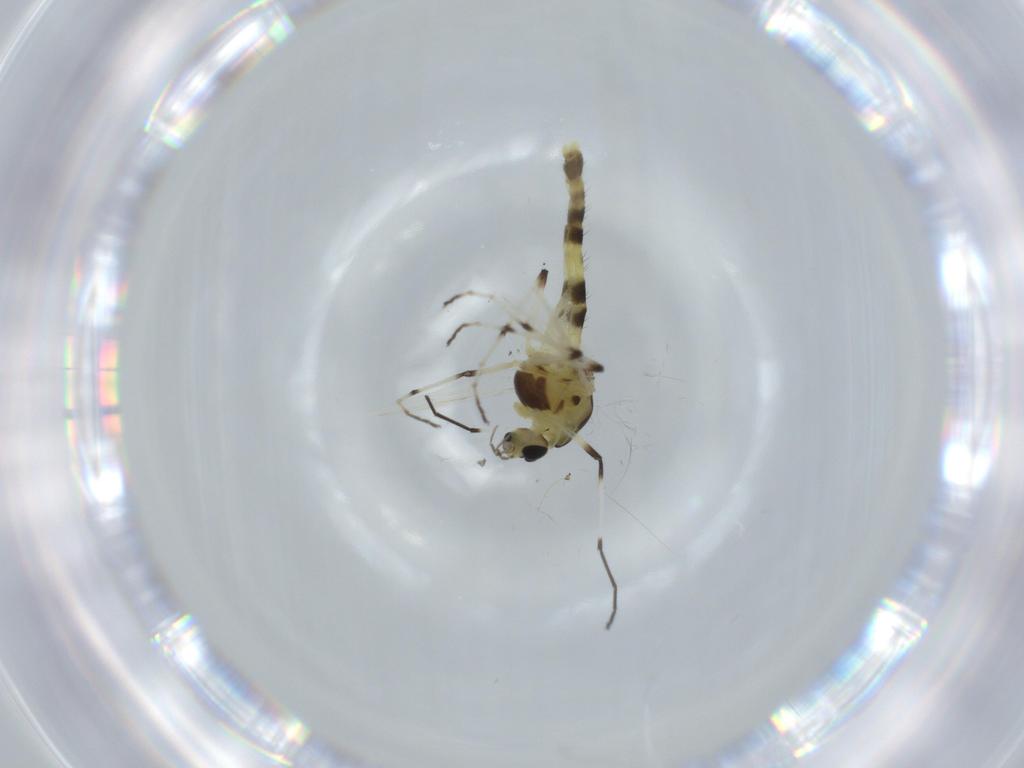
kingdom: Animalia
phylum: Arthropoda
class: Insecta
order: Diptera
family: Chironomidae
